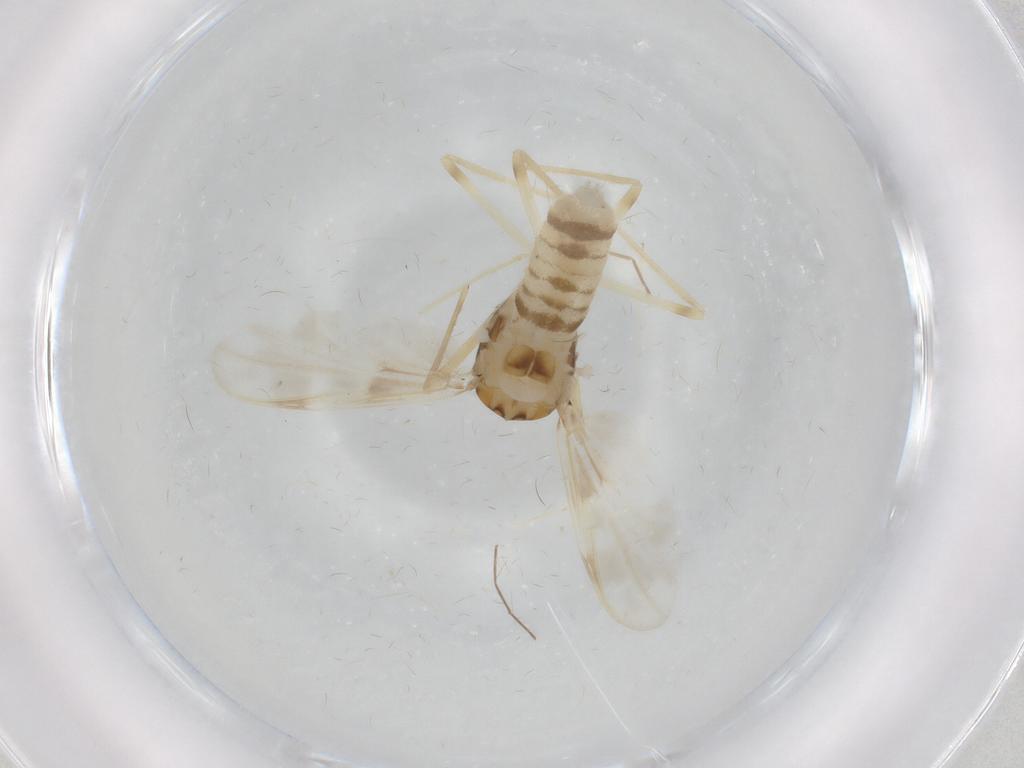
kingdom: Animalia
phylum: Arthropoda
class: Insecta
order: Diptera
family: Chironomidae
